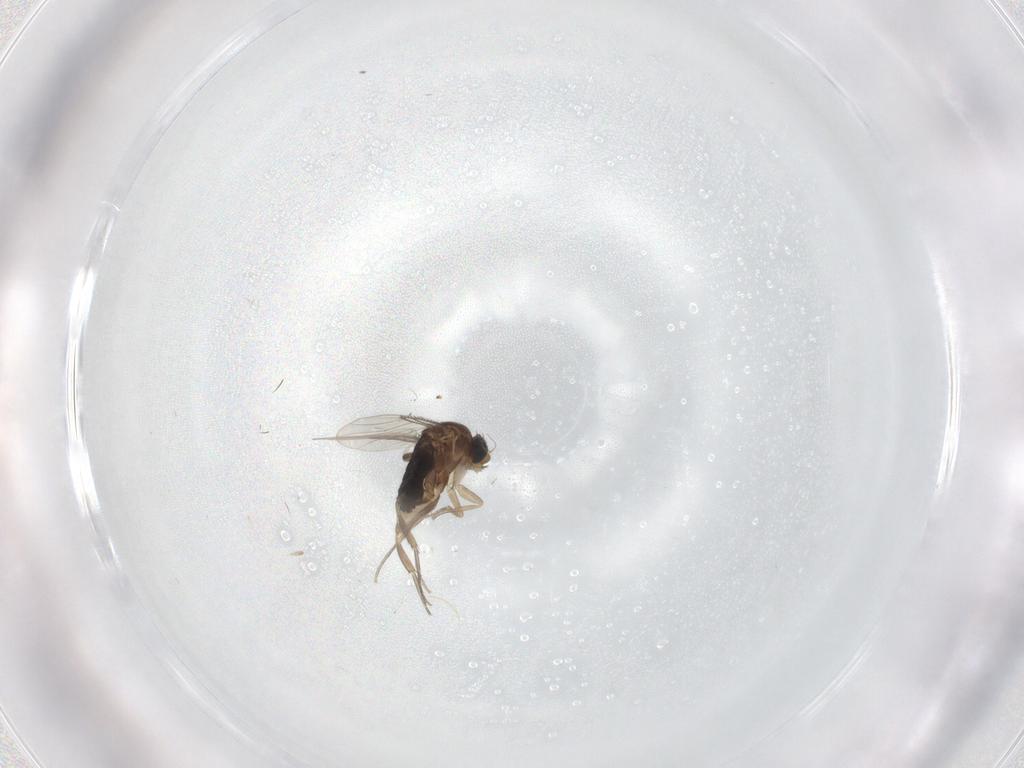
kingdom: Animalia
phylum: Arthropoda
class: Insecta
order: Diptera
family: Phoridae
